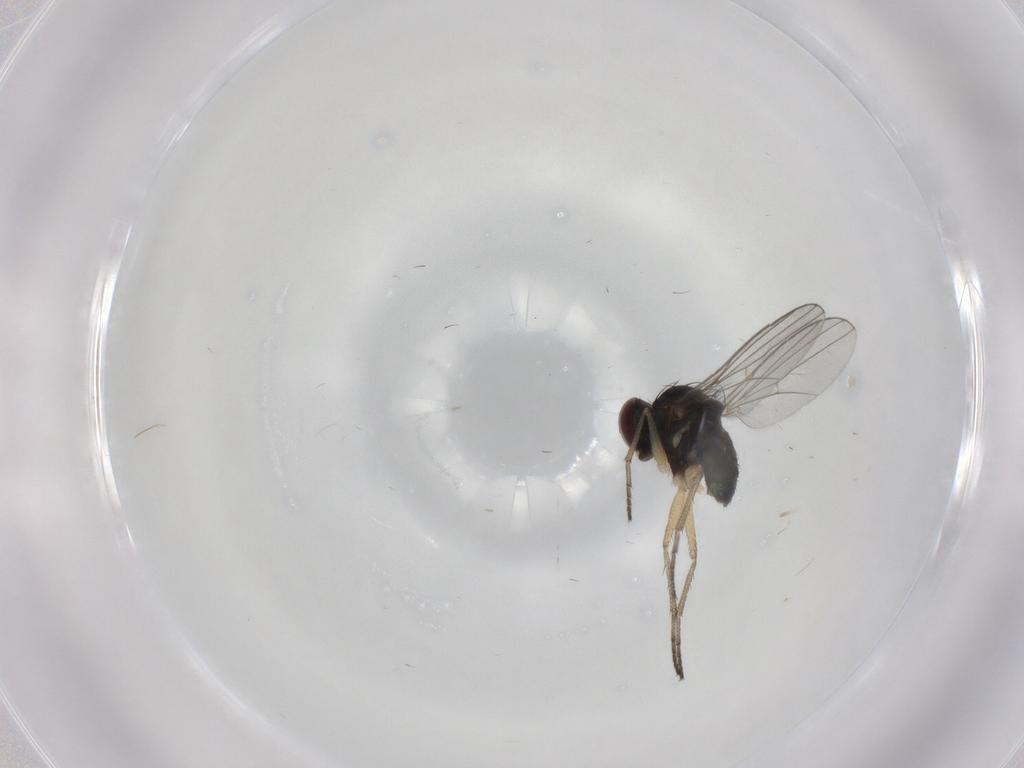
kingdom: Animalia
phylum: Arthropoda
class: Insecta
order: Diptera
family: Dolichopodidae
